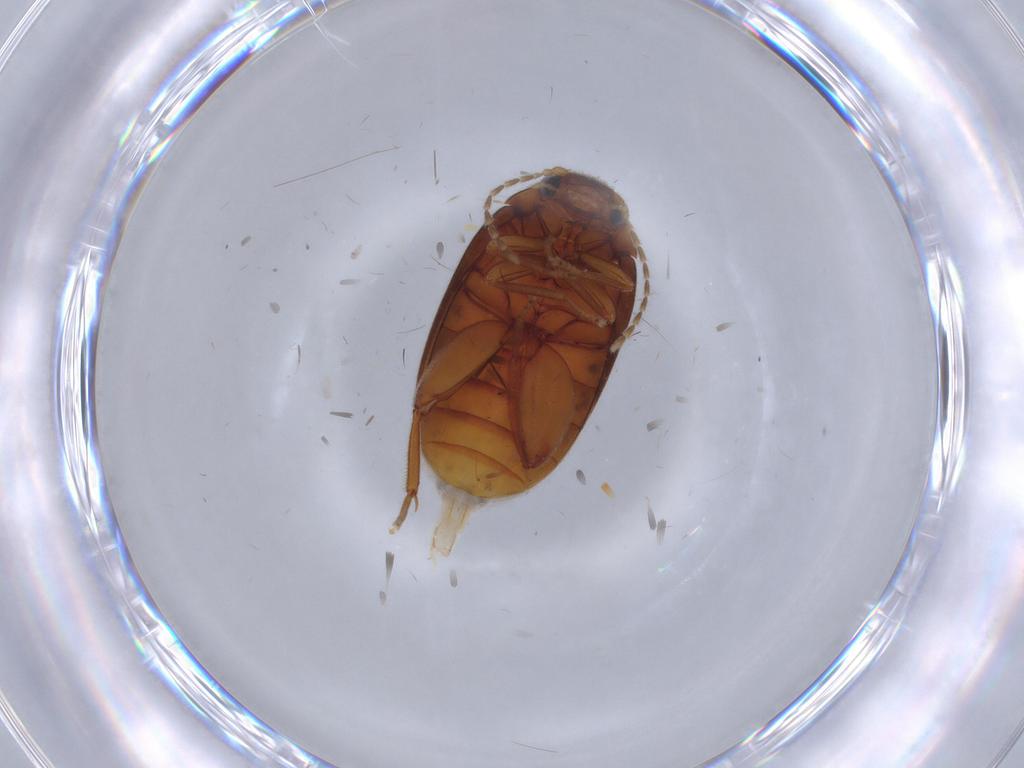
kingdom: Animalia
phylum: Arthropoda
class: Insecta
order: Coleoptera
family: Scirtidae
